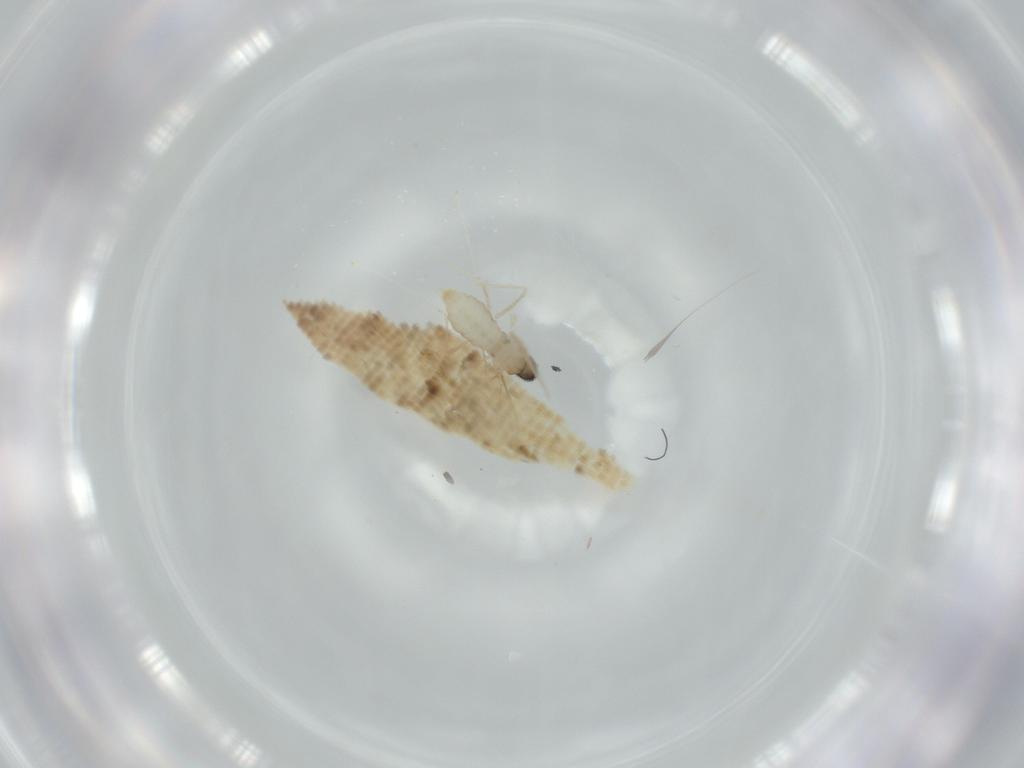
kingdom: Animalia
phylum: Arthropoda
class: Insecta
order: Diptera
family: Cecidomyiidae
